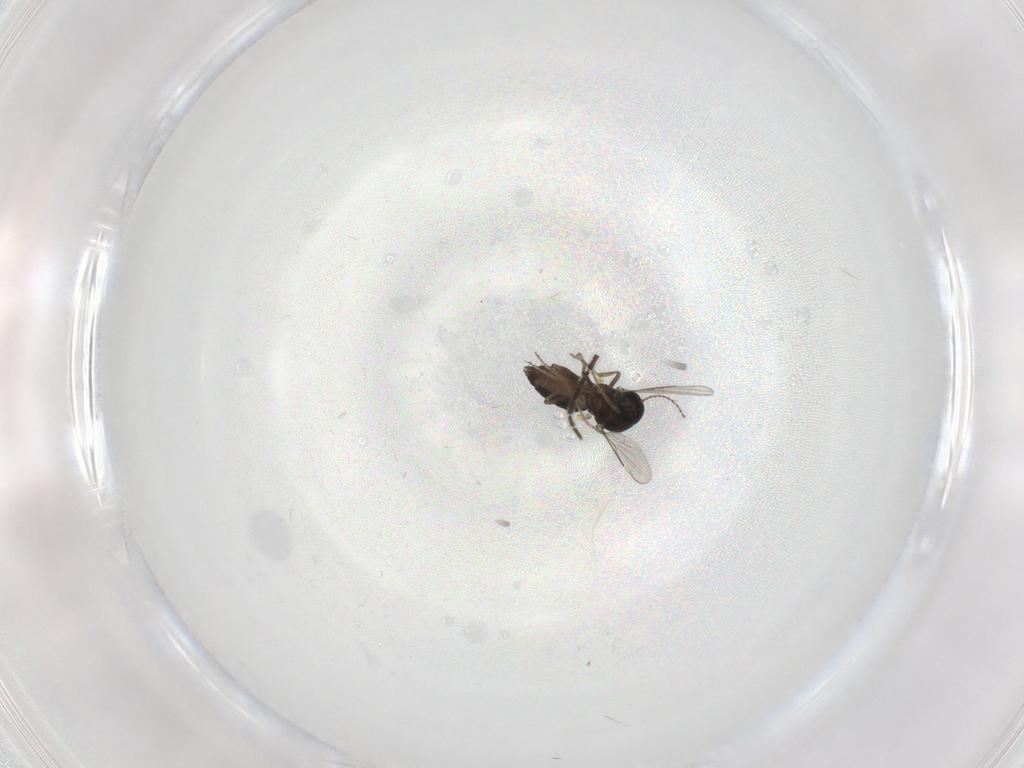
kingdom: Animalia
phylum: Arthropoda
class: Insecta
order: Diptera
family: Ceratopogonidae
